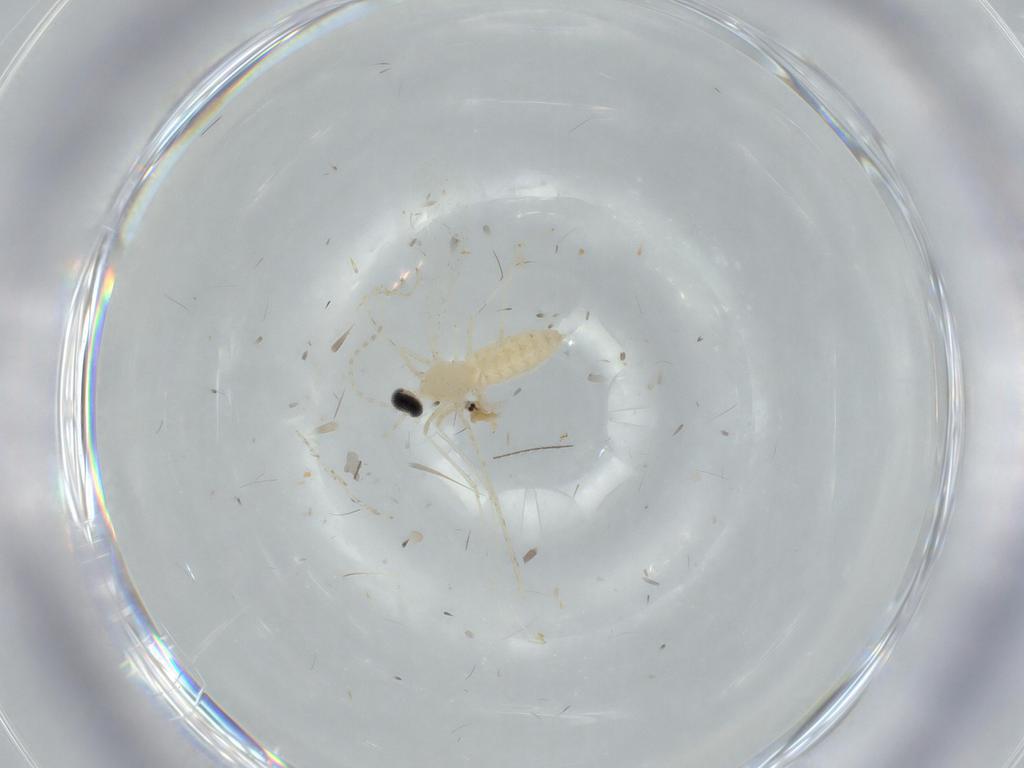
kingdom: Animalia
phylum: Arthropoda
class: Insecta
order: Diptera
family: Cecidomyiidae
